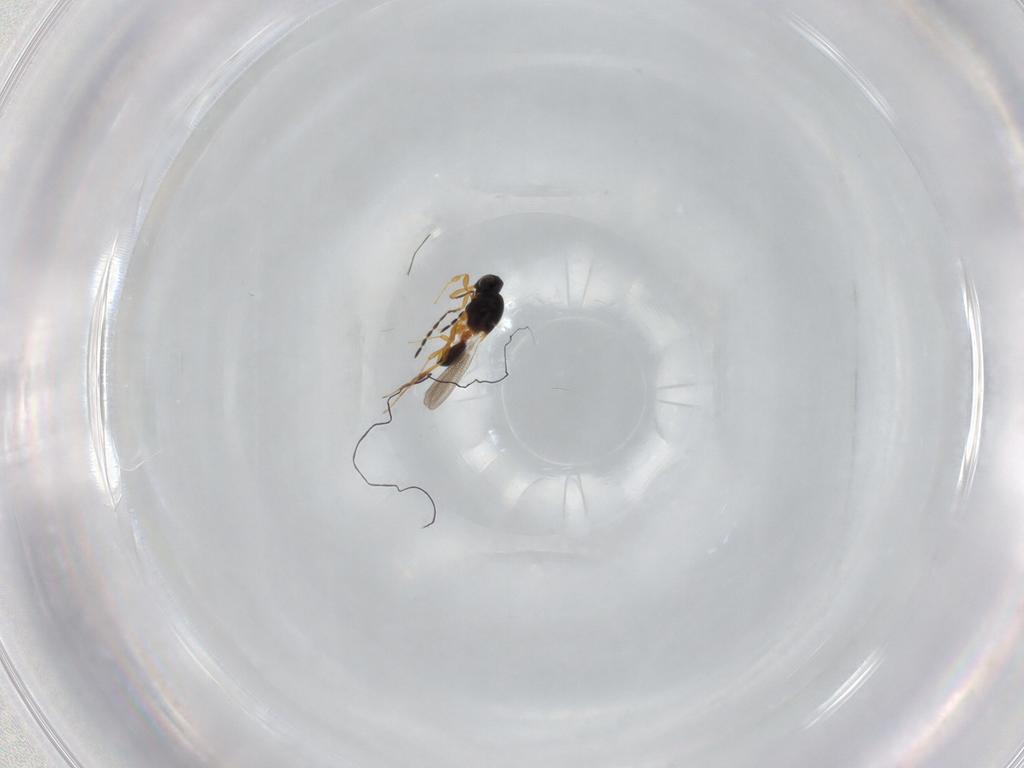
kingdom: Animalia
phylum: Arthropoda
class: Insecta
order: Hymenoptera
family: Platygastridae
